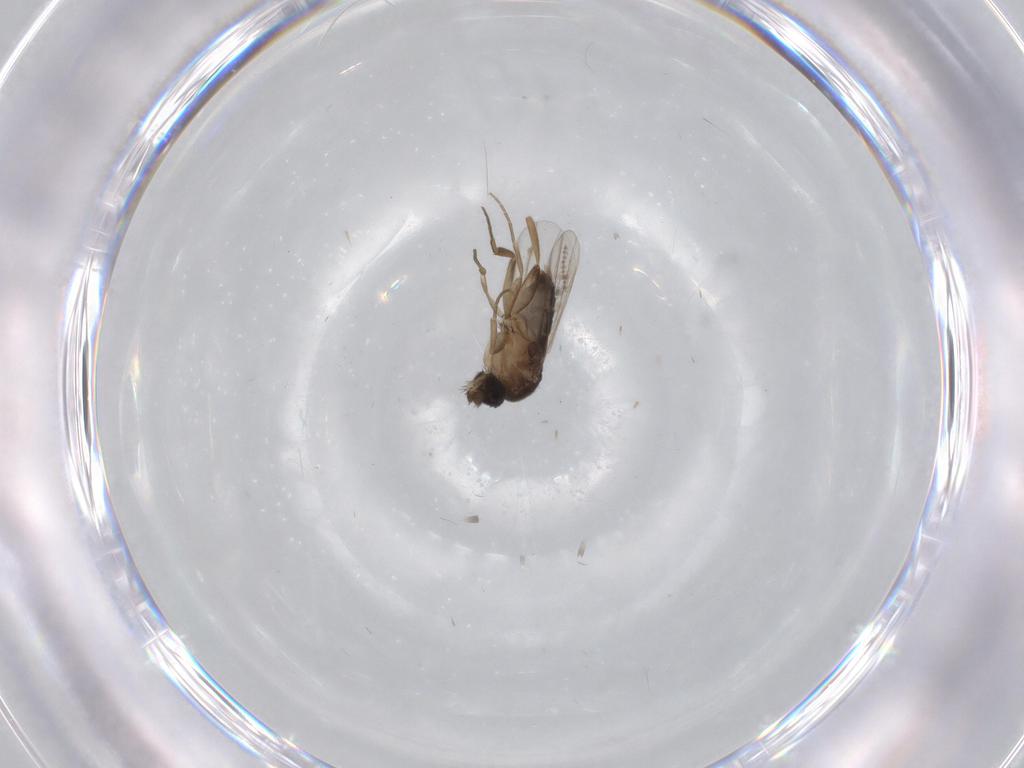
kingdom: Animalia
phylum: Arthropoda
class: Insecta
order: Diptera
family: Phoridae
